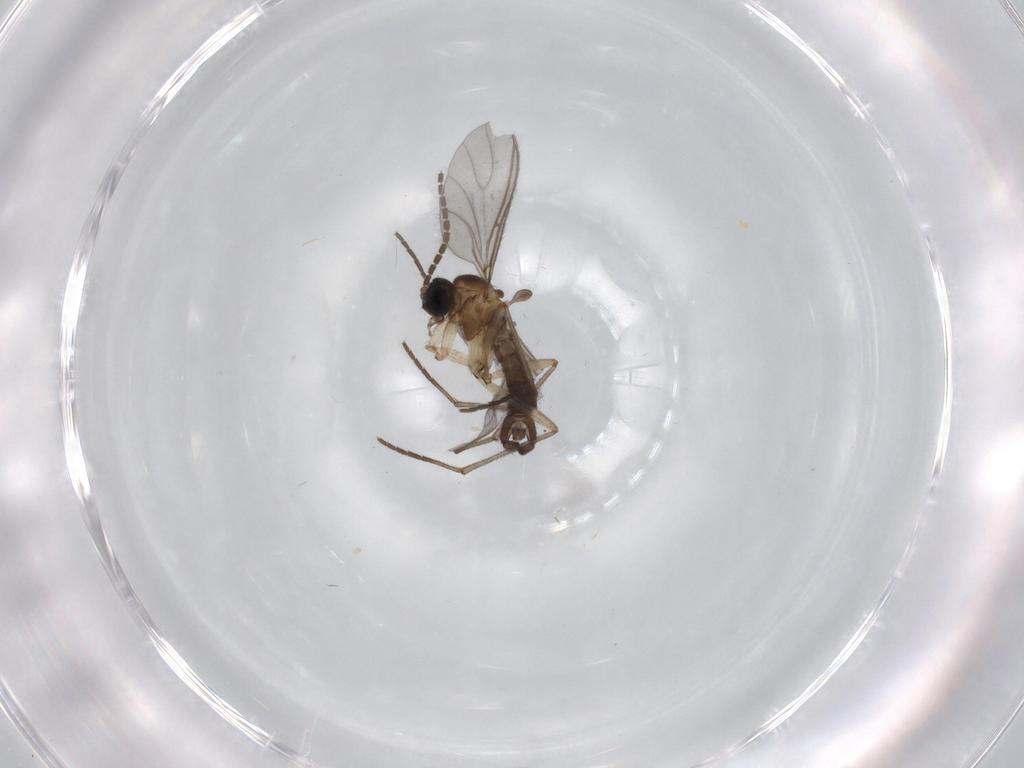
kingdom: Animalia
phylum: Arthropoda
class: Insecta
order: Diptera
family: Sciaridae
